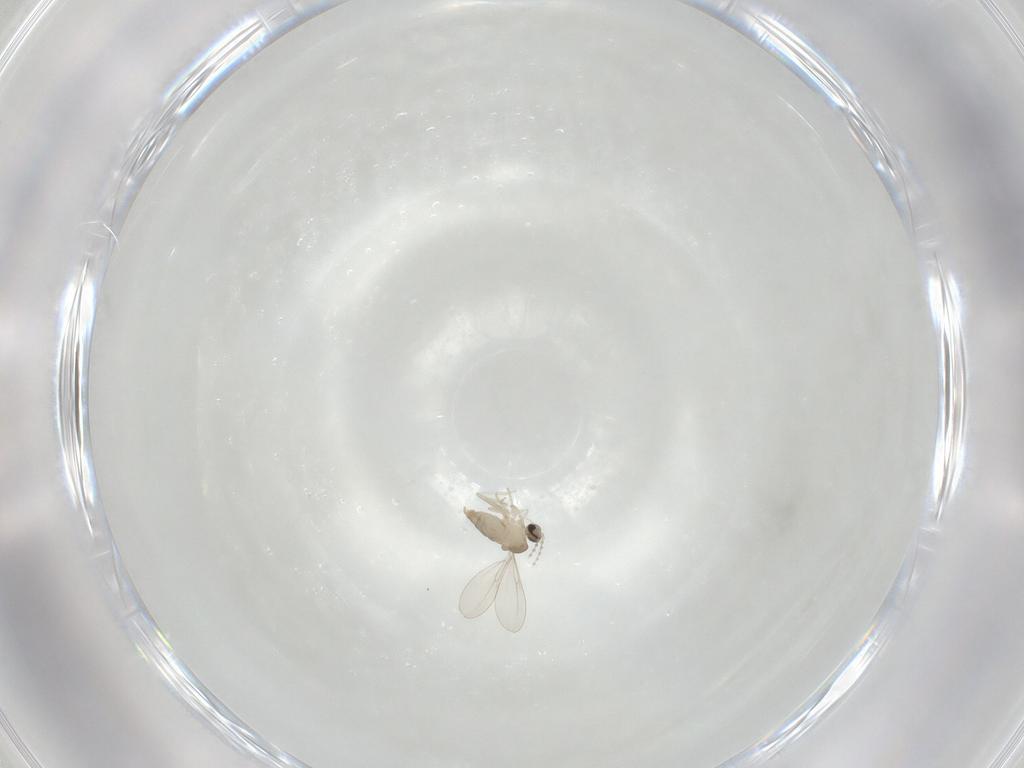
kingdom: Animalia
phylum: Arthropoda
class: Insecta
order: Diptera
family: Cecidomyiidae
